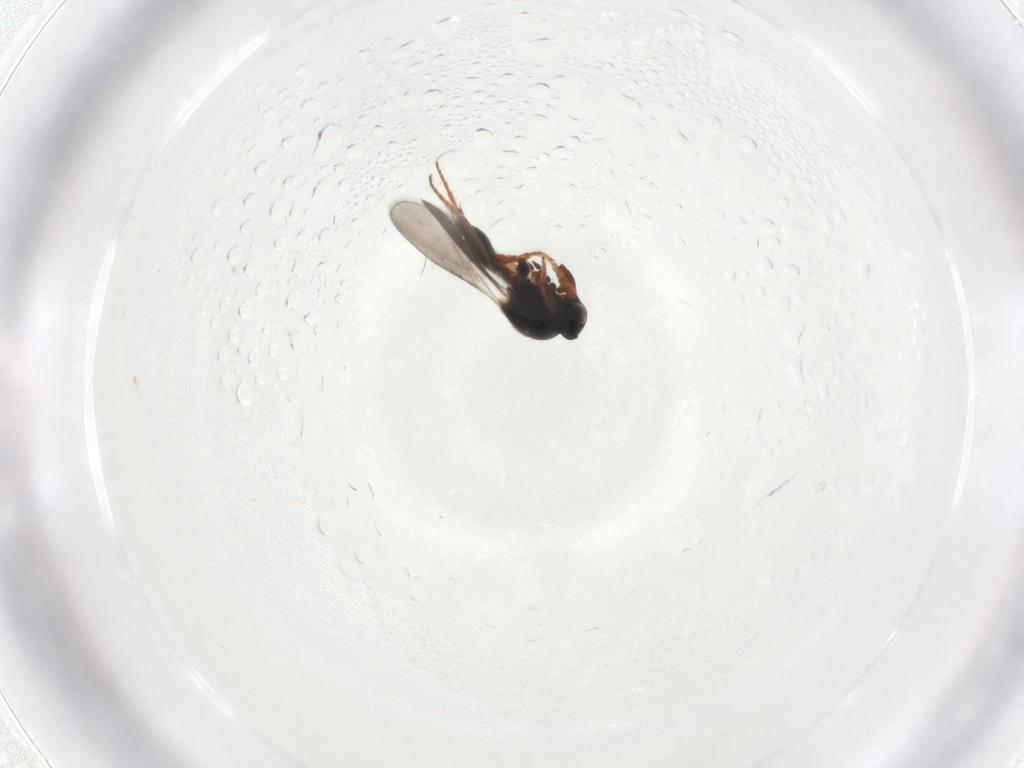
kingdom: Animalia
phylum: Arthropoda
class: Insecta
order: Hymenoptera
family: Platygastridae
